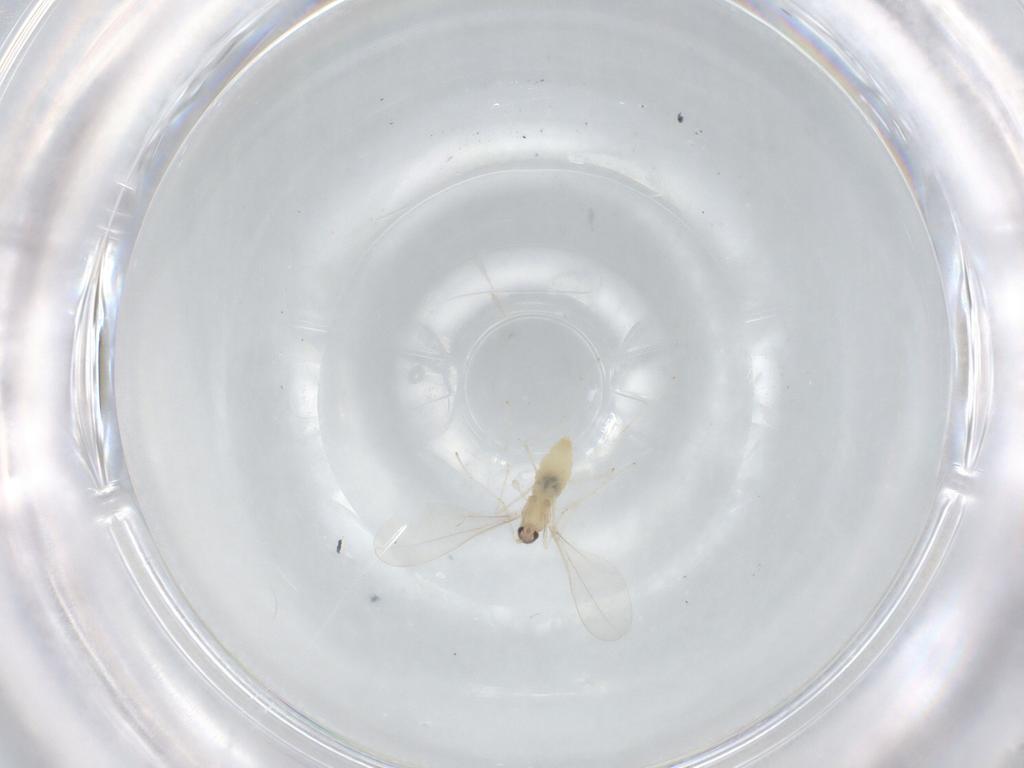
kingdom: Animalia
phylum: Arthropoda
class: Insecta
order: Diptera
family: Cecidomyiidae
